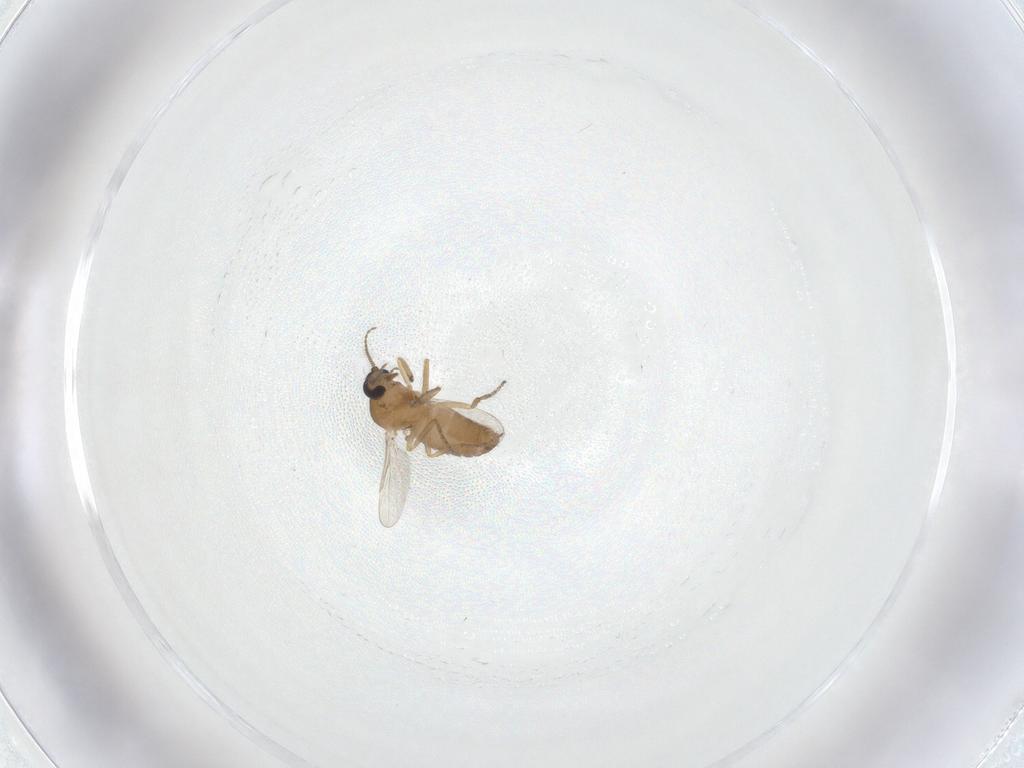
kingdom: Animalia
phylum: Arthropoda
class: Insecta
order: Diptera
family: Ceratopogonidae
